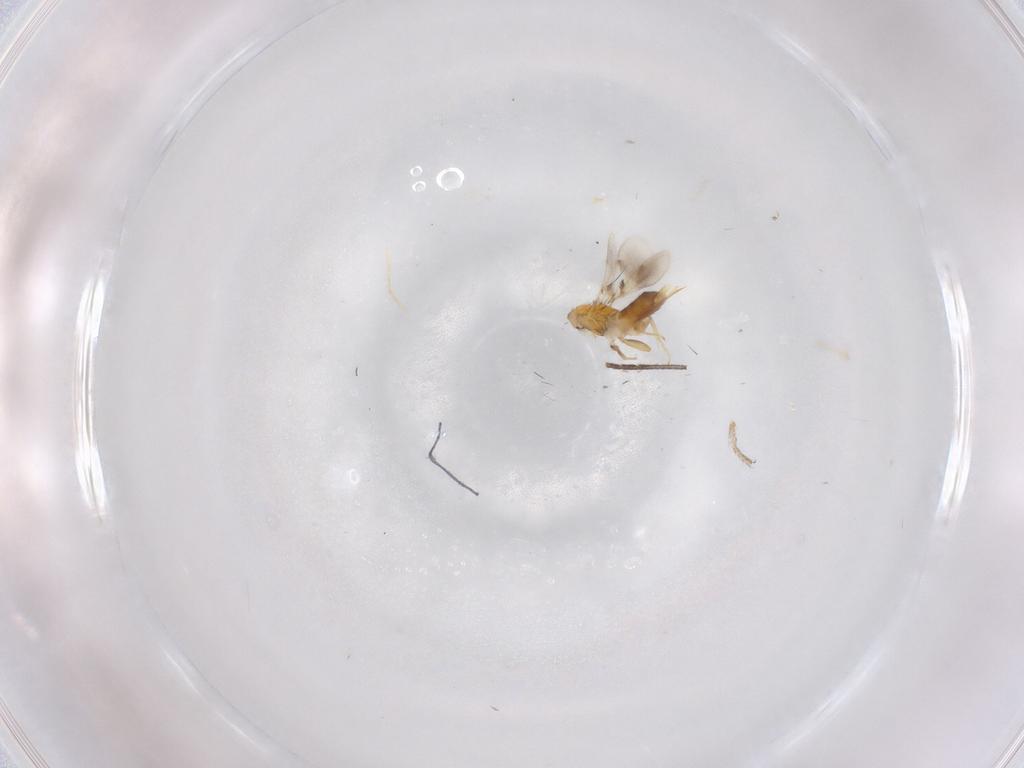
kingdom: Animalia
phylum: Arthropoda
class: Insecta
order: Hymenoptera
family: Aphelinidae
